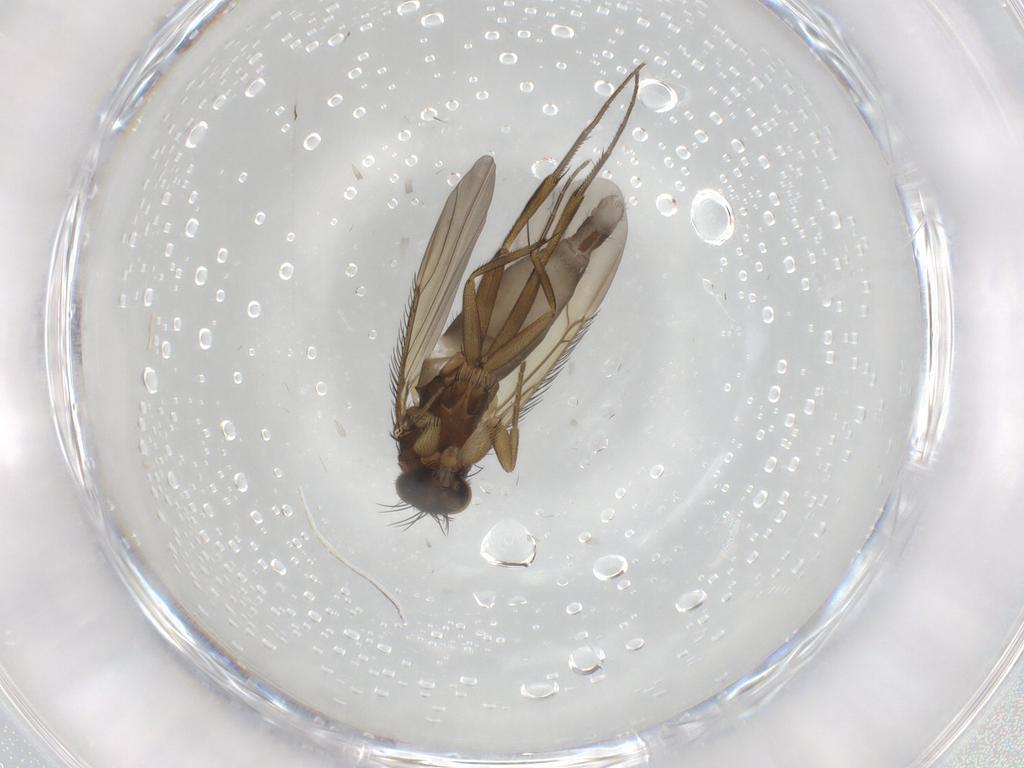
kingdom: Animalia
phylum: Arthropoda
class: Insecta
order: Diptera
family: Phoridae
